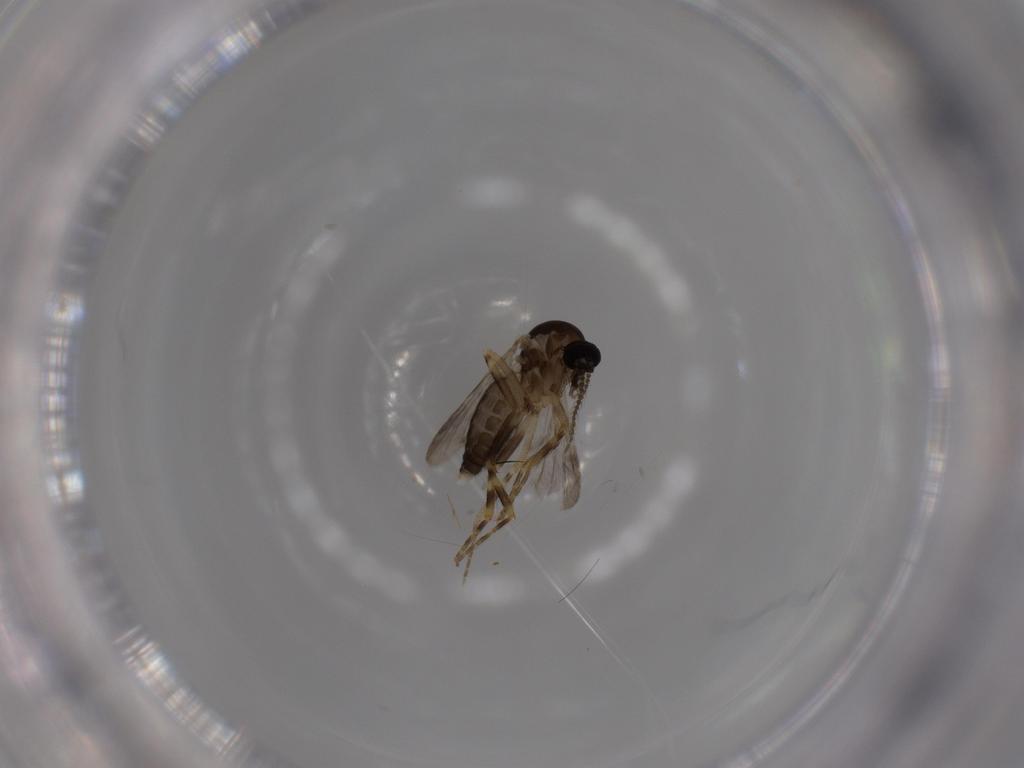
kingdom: Animalia
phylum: Arthropoda
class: Insecta
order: Diptera
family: Ceratopogonidae
